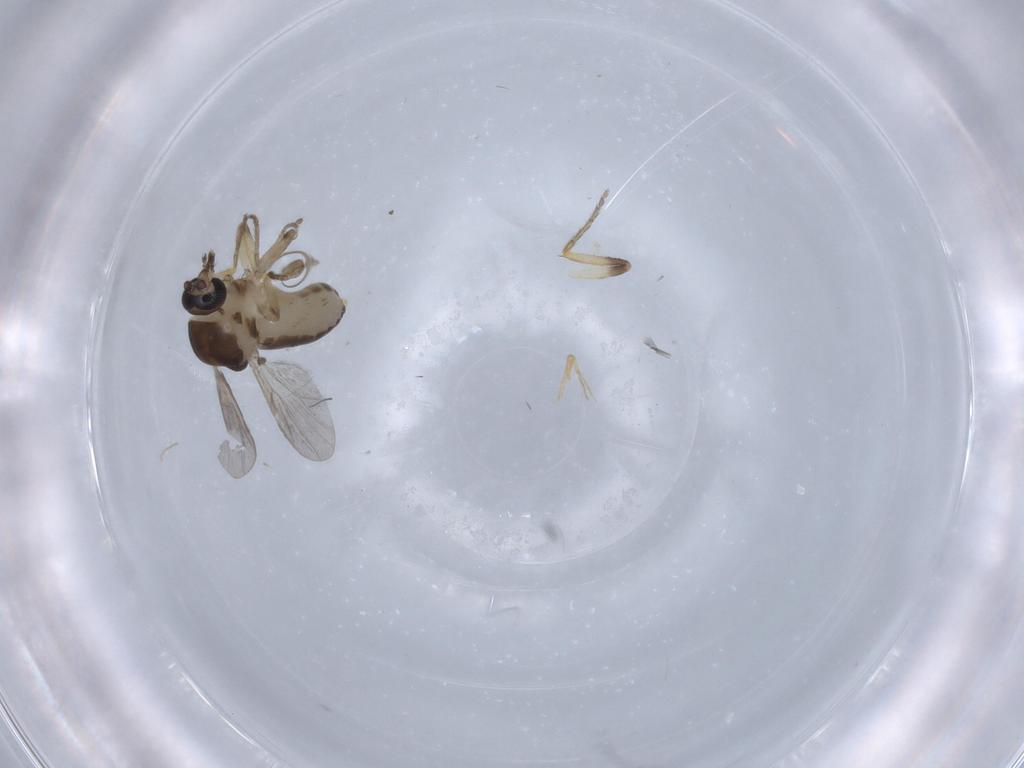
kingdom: Animalia
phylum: Arthropoda
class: Insecta
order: Diptera
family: Ceratopogonidae
